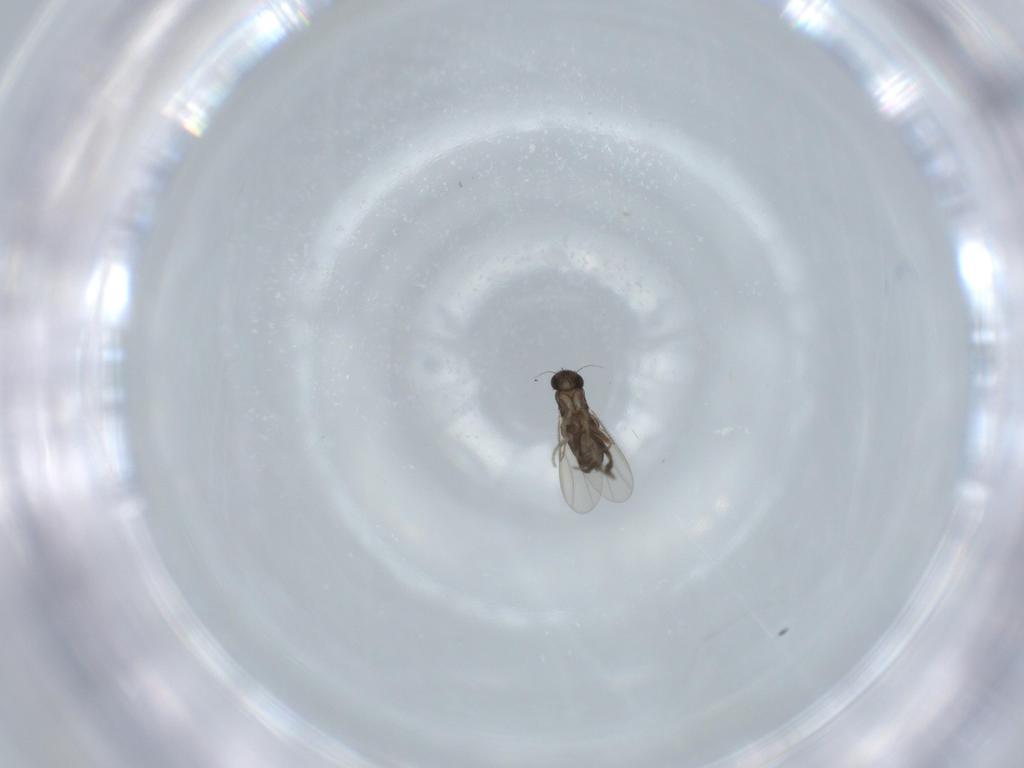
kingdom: Animalia
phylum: Arthropoda
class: Insecta
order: Diptera
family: Phoridae
